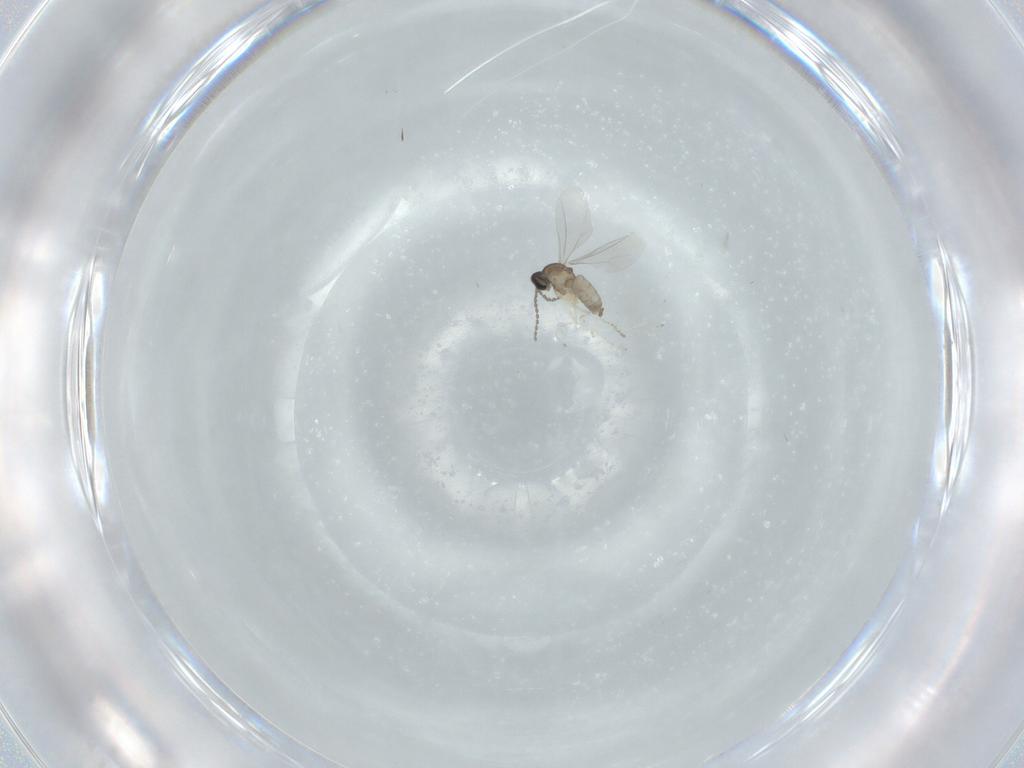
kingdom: Animalia
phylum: Arthropoda
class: Insecta
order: Diptera
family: Cecidomyiidae
